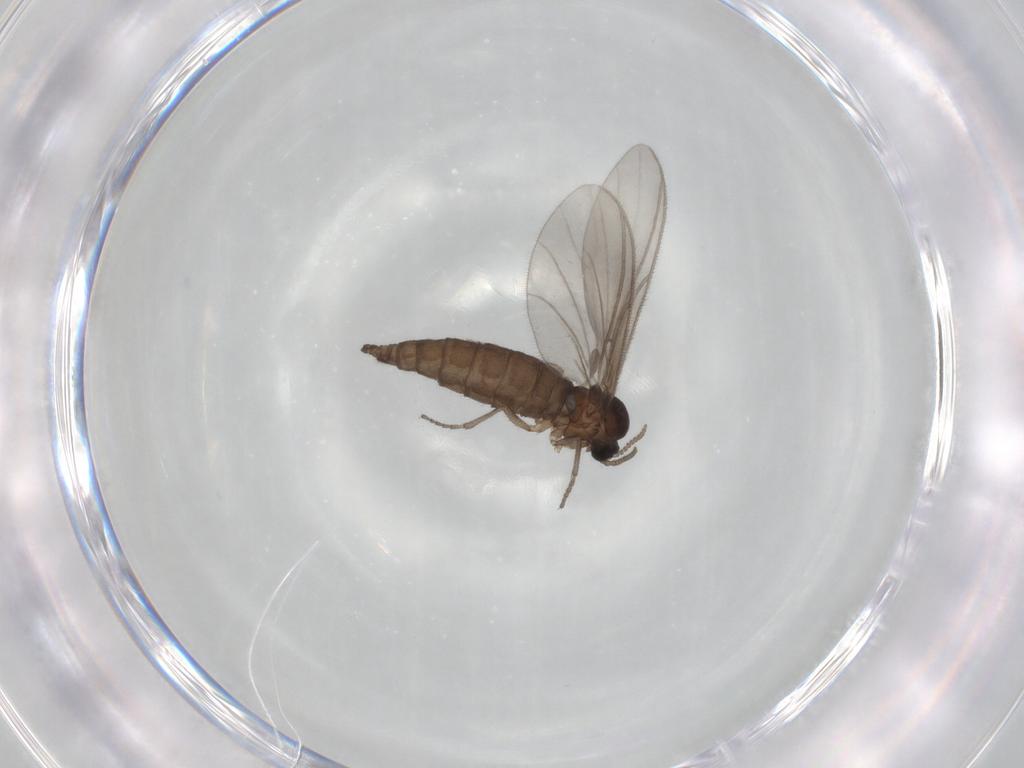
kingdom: Animalia
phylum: Arthropoda
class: Insecta
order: Diptera
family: Sciaridae
